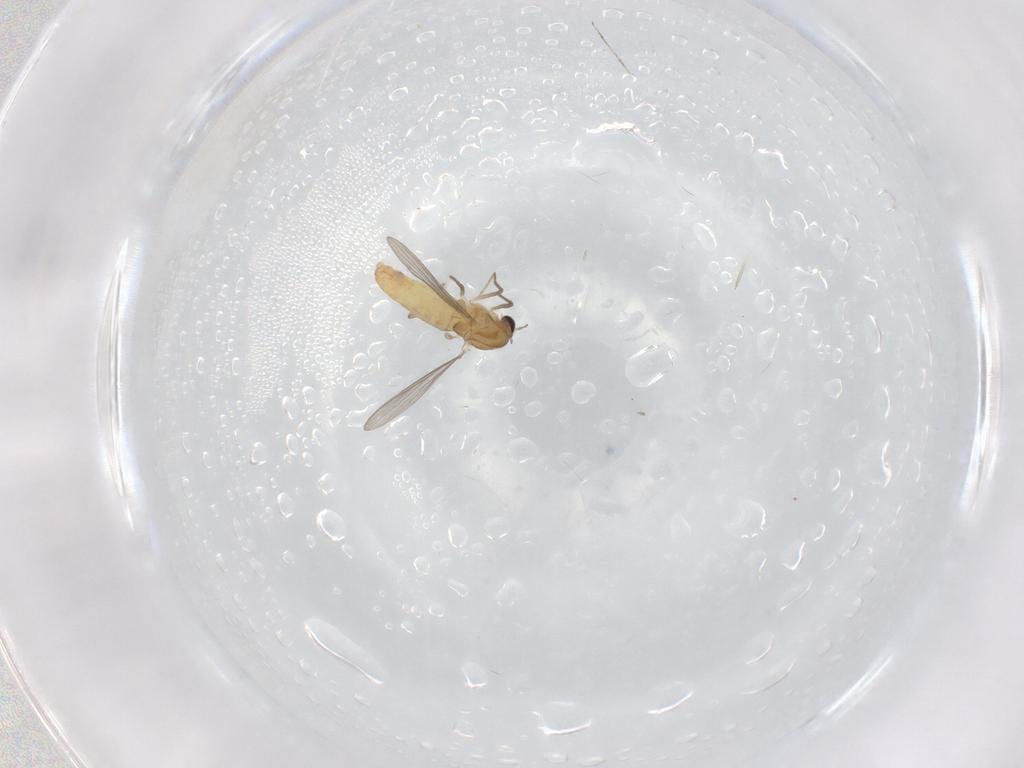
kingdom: Animalia
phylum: Arthropoda
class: Insecta
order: Diptera
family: Chironomidae
